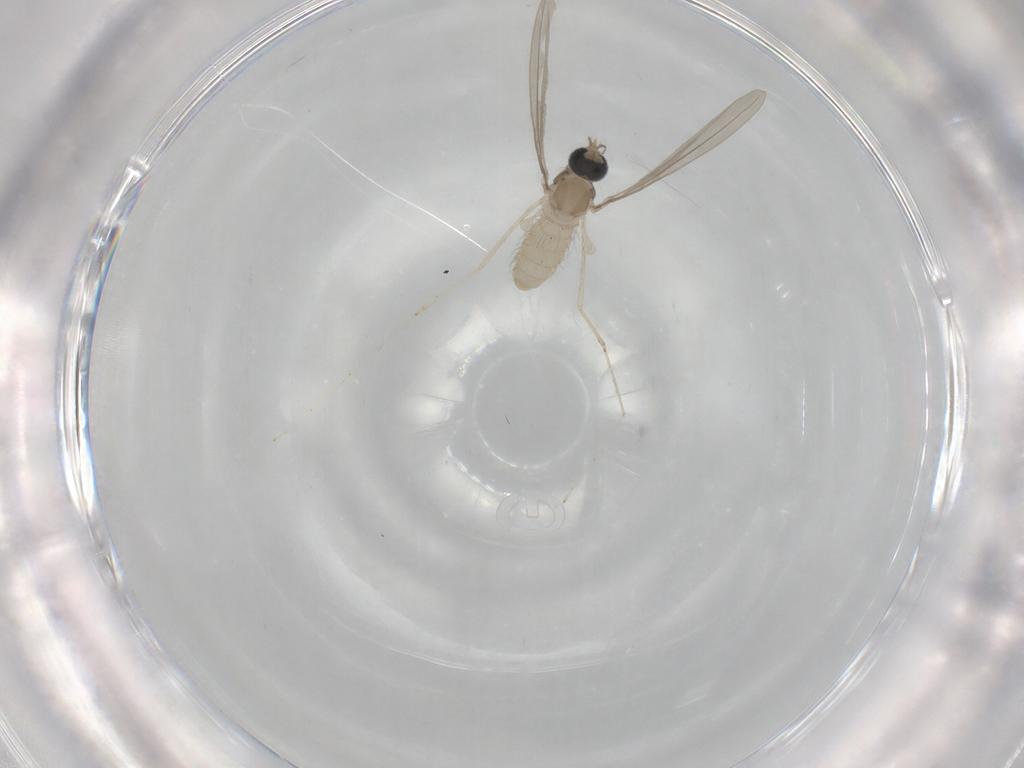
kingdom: Animalia
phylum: Arthropoda
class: Insecta
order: Diptera
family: Cecidomyiidae
